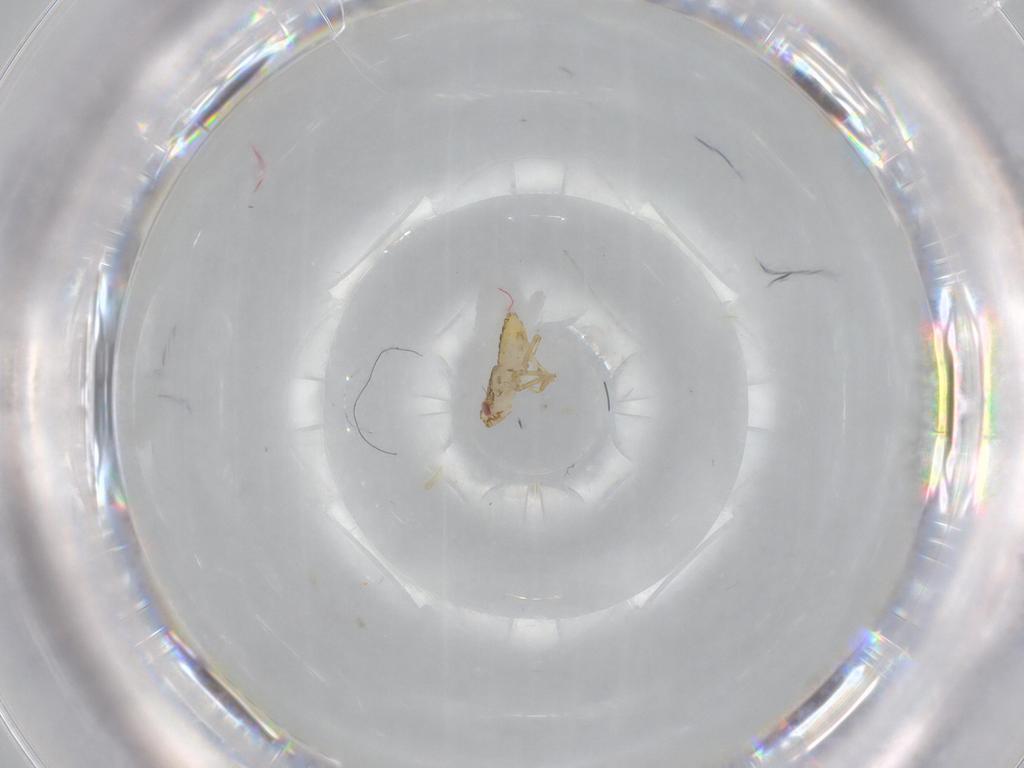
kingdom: Animalia
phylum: Arthropoda
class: Insecta
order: Hemiptera
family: Delphacidae
